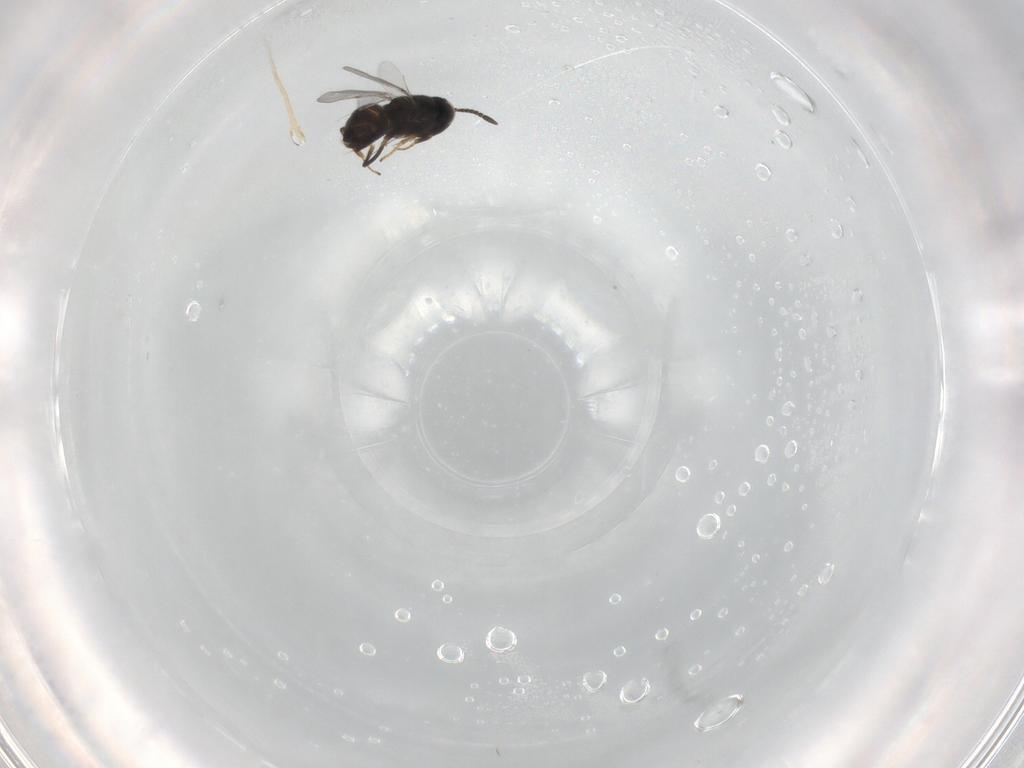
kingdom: Animalia
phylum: Arthropoda
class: Insecta
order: Hymenoptera
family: Encyrtidae
